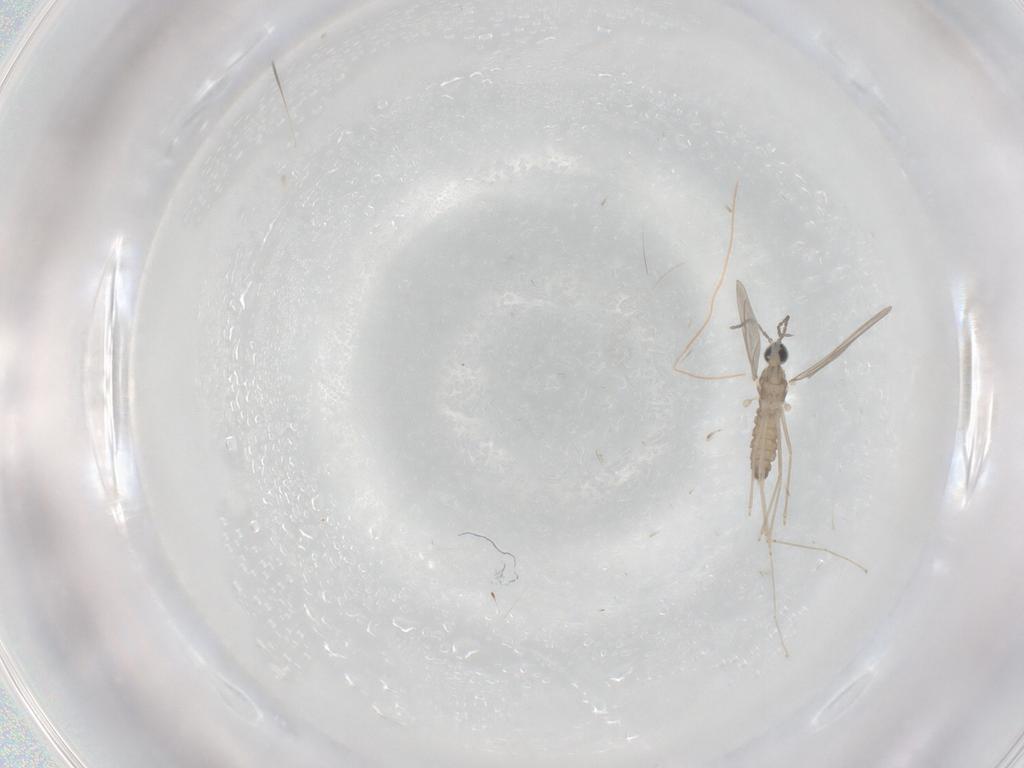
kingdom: Animalia
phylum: Arthropoda
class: Insecta
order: Diptera
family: Cecidomyiidae
